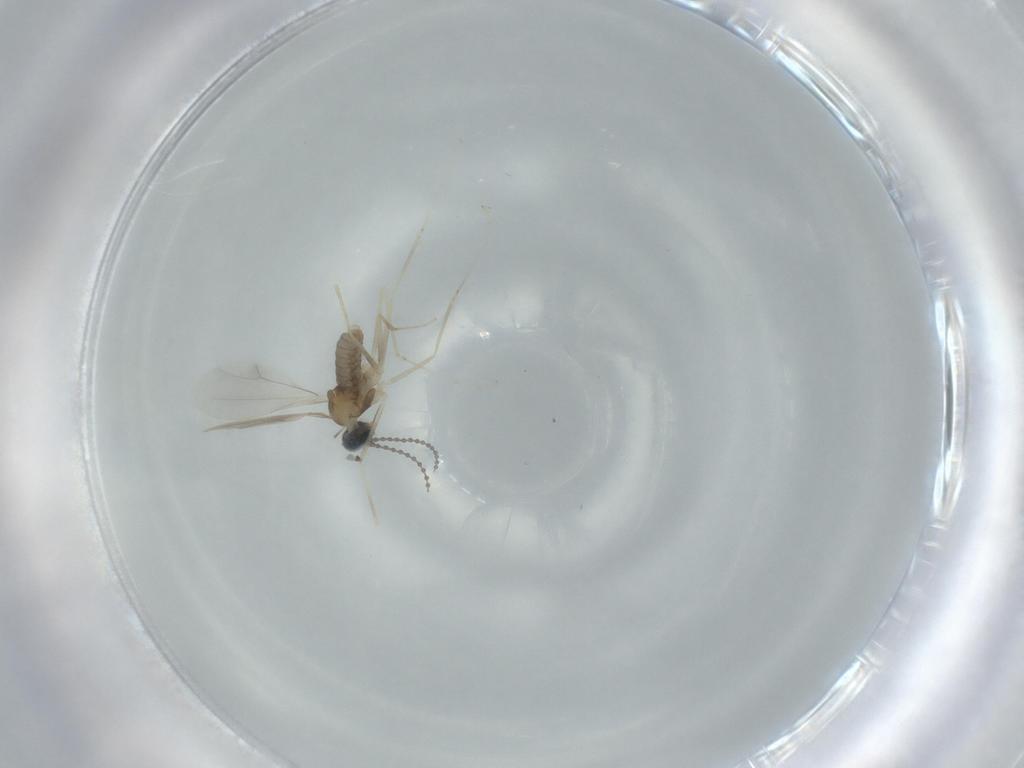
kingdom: Animalia
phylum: Arthropoda
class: Insecta
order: Diptera
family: Cecidomyiidae
